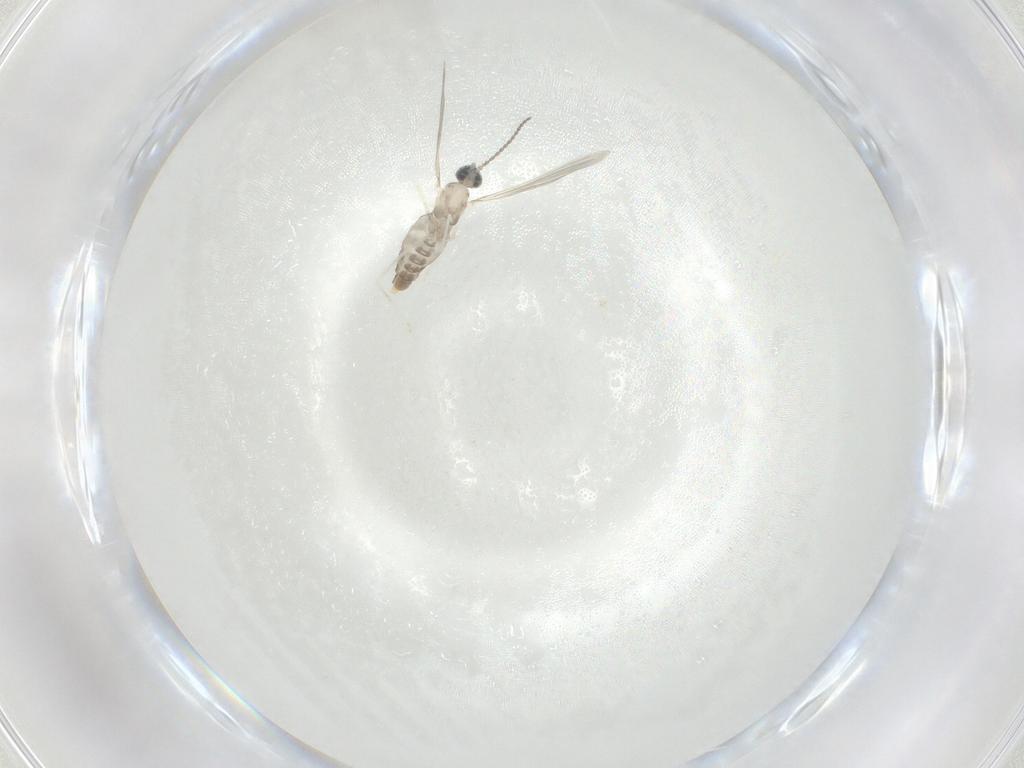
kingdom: Animalia
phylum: Arthropoda
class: Insecta
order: Diptera
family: Cecidomyiidae
